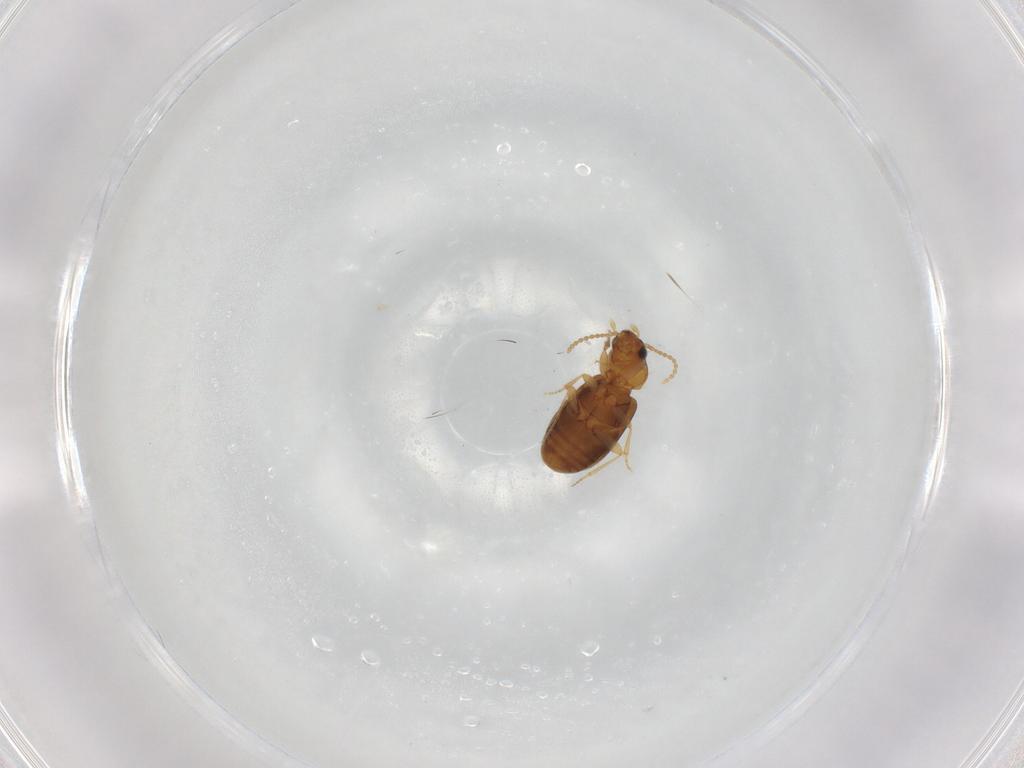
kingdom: Animalia
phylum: Arthropoda
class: Insecta
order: Coleoptera
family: Carabidae
